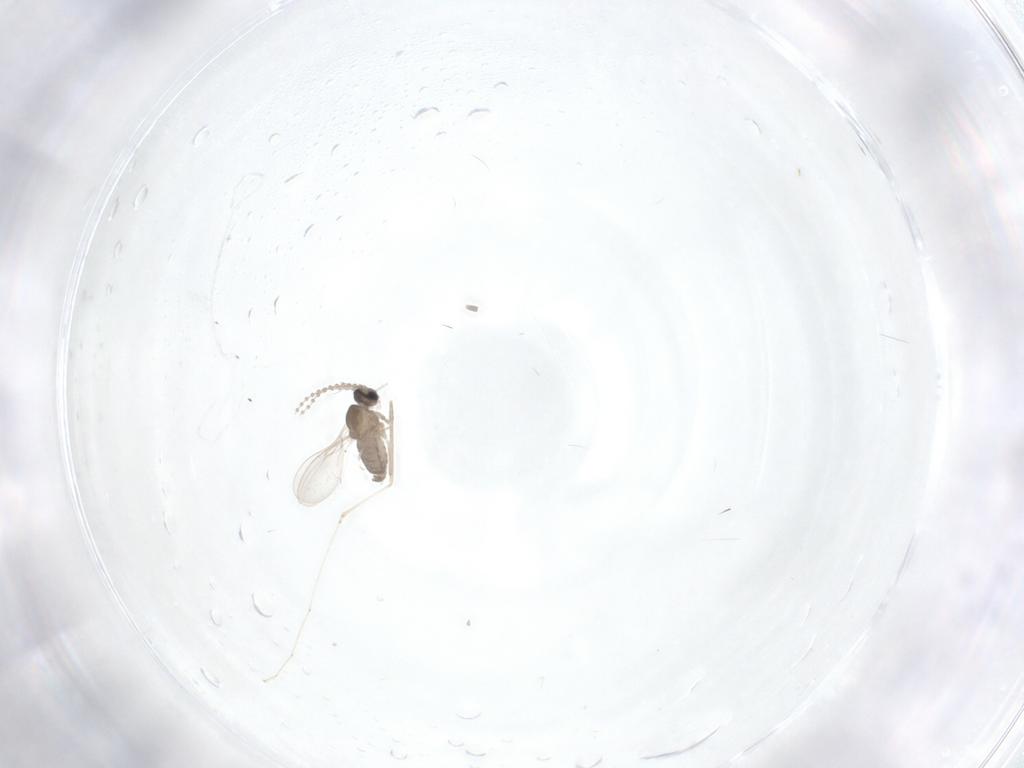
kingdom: Animalia
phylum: Arthropoda
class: Insecta
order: Diptera
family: Cecidomyiidae
